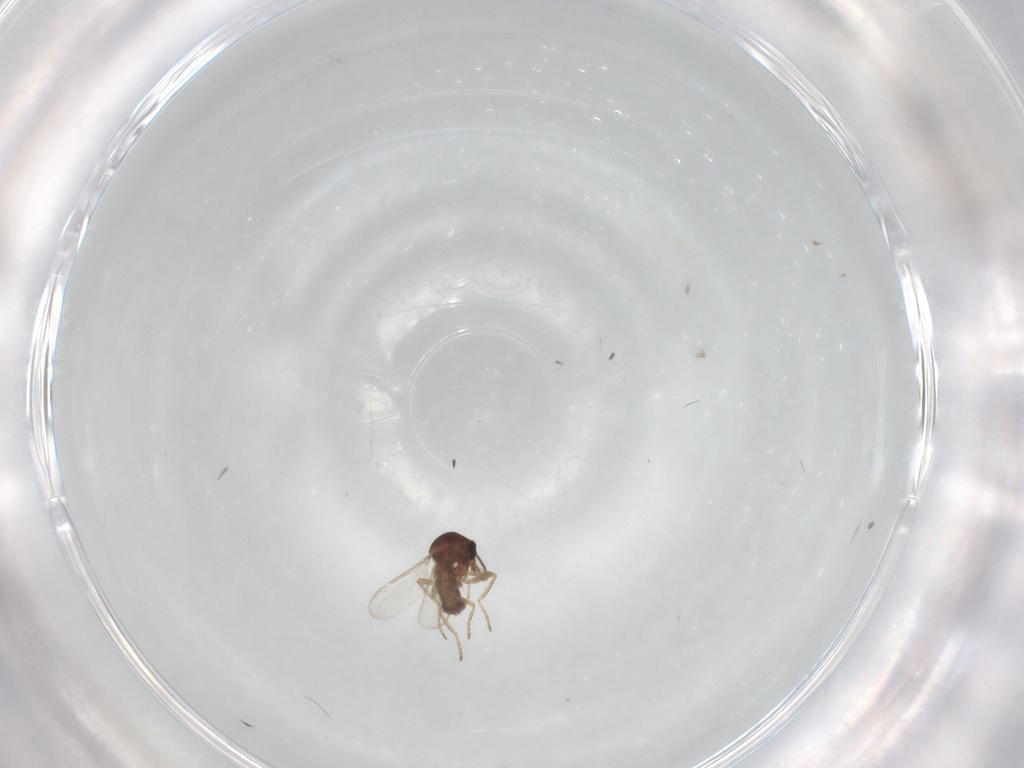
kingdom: Animalia
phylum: Arthropoda
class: Insecta
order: Diptera
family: Ceratopogonidae
